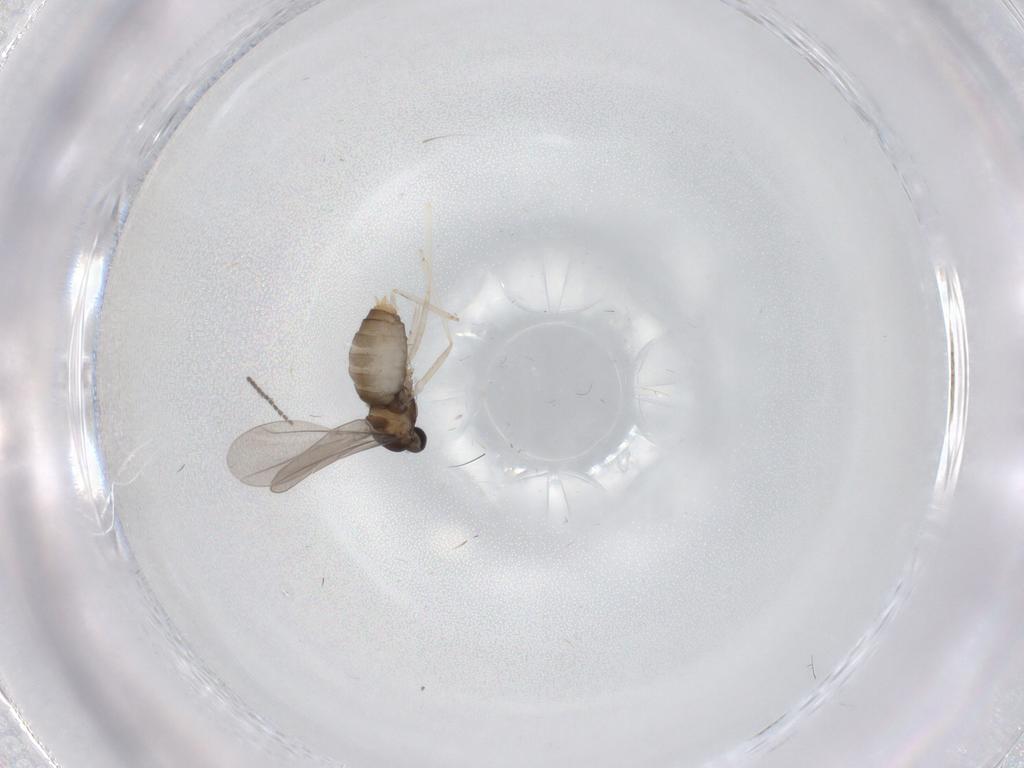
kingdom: Animalia
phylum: Arthropoda
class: Insecta
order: Diptera
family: Cecidomyiidae
